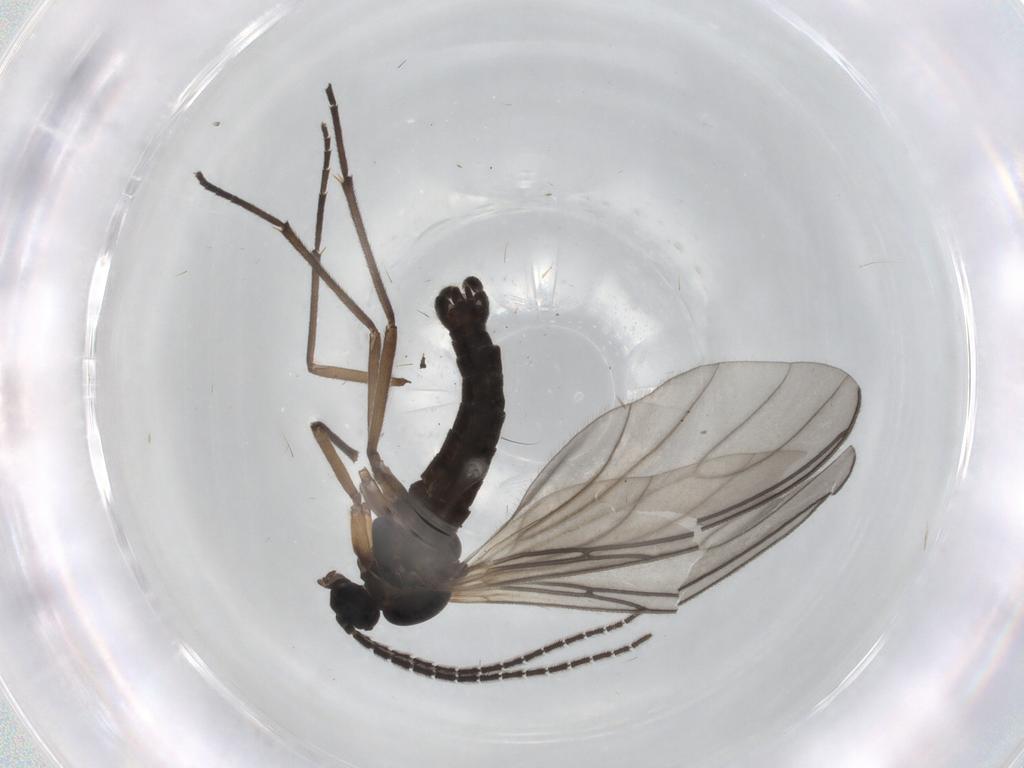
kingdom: Animalia
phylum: Arthropoda
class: Insecta
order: Diptera
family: Sciaridae
